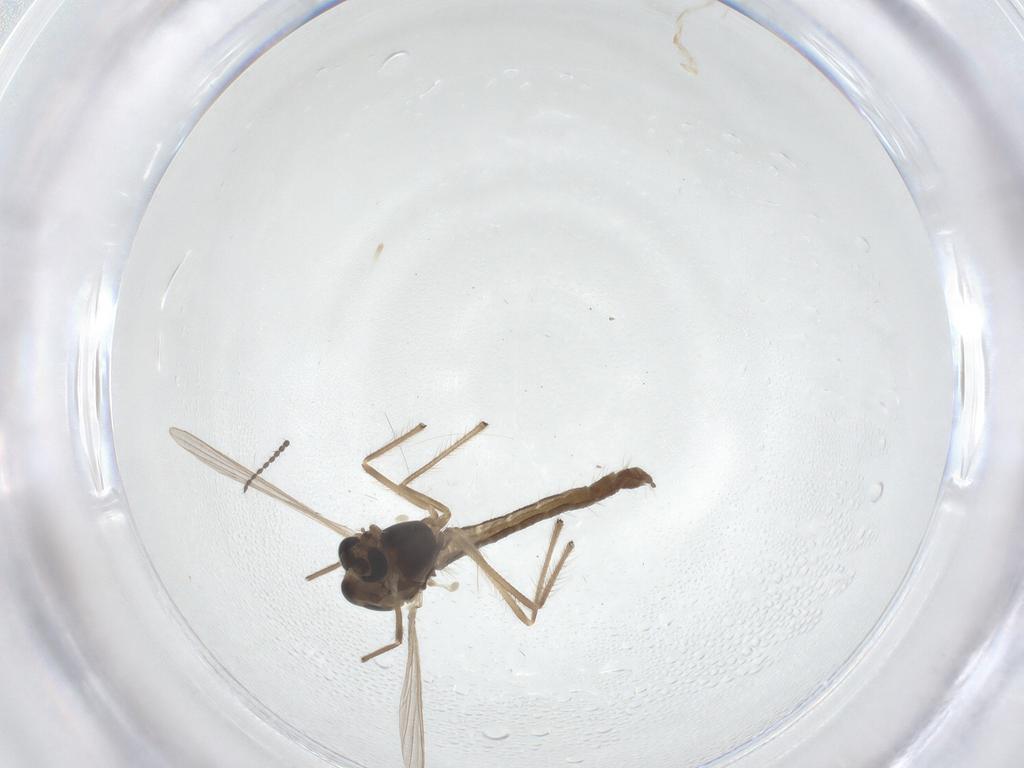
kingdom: Animalia
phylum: Arthropoda
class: Insecta
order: Diptera
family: Chironomidae
